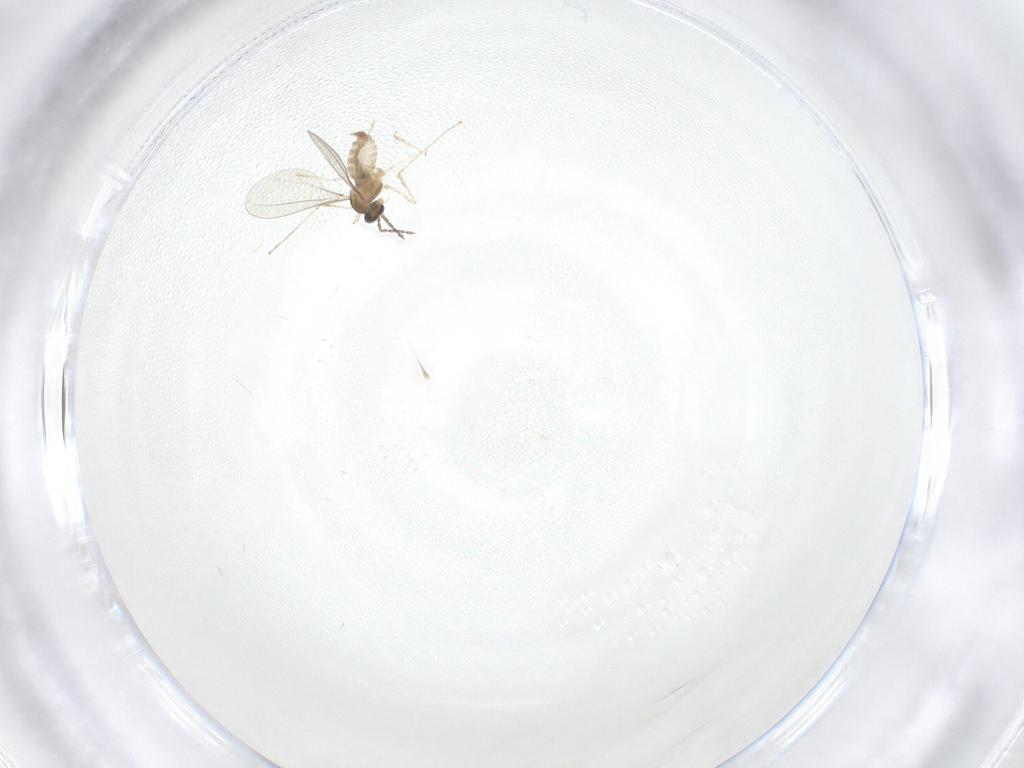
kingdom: Animalia
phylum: Arthropoda
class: Insecta
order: Diptera
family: Cecidomyiidae
